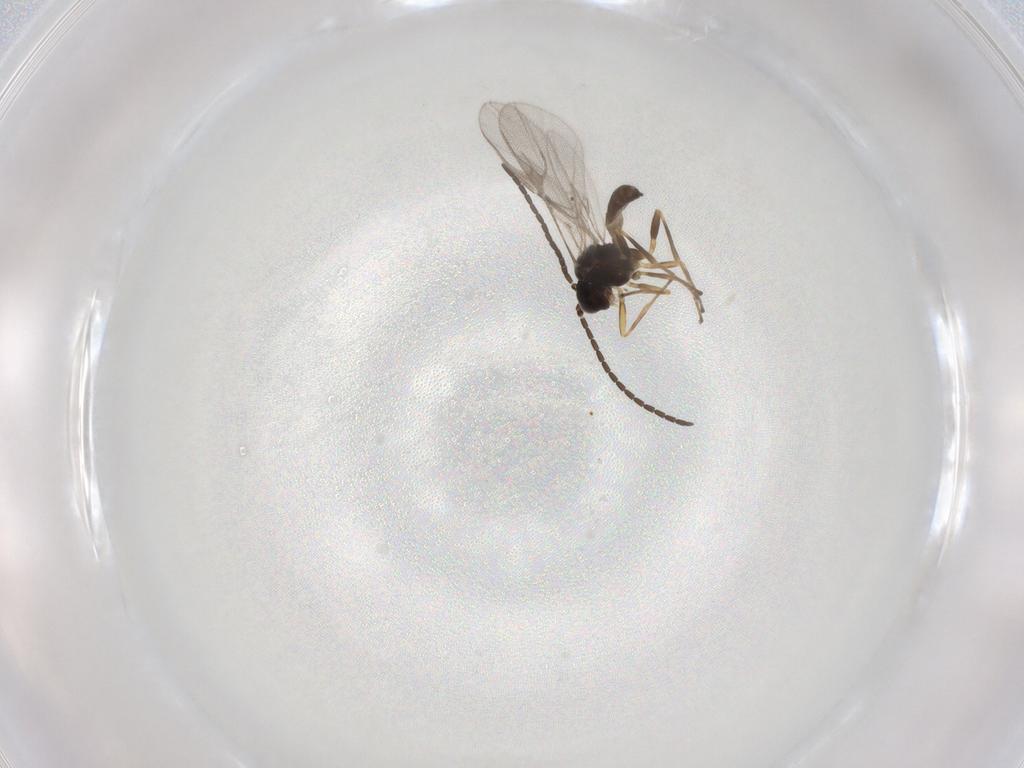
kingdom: Animalia
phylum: Arthropoda
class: Insecta
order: Hymenoptera
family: Braconidae
